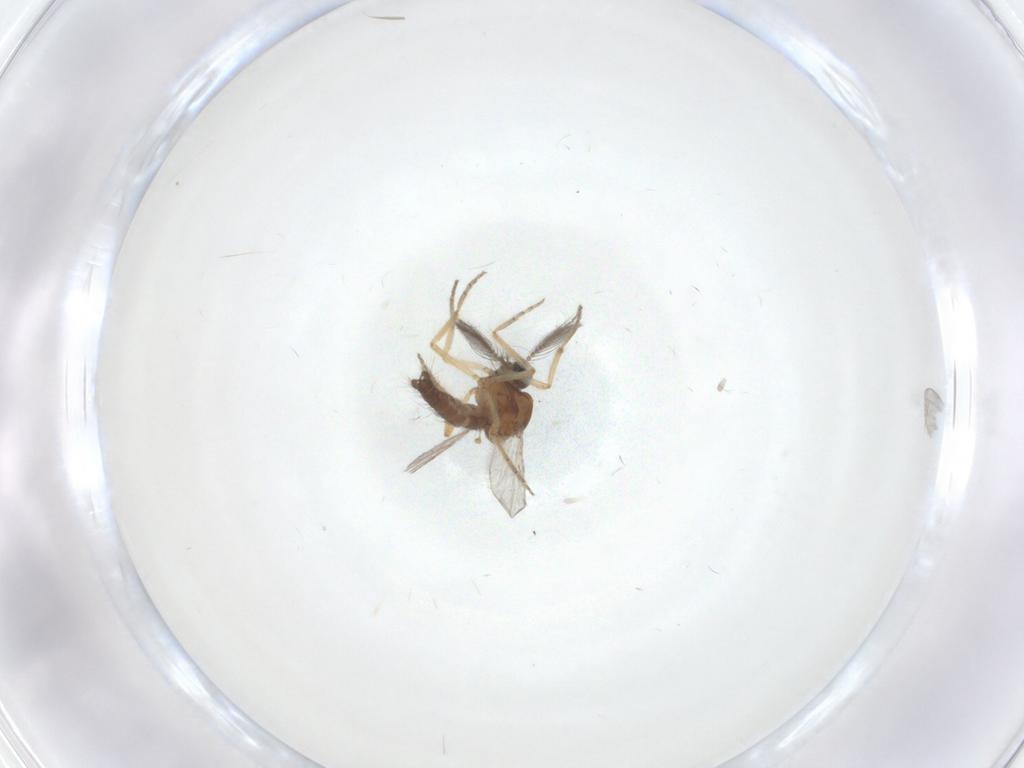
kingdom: Animalia
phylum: Arthropoda
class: Insecta
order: Diptera
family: Ceratopogonidae
